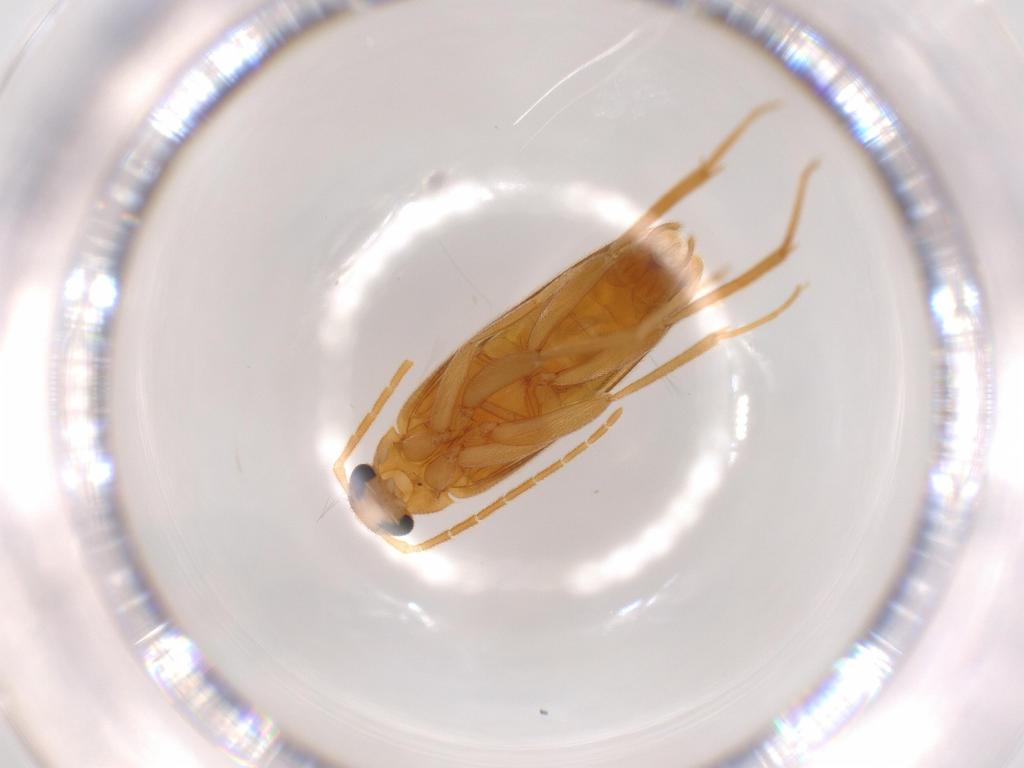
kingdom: Animalia
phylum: Arthropoda
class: Insecta
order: Coleoptera
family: Scraptiidae
